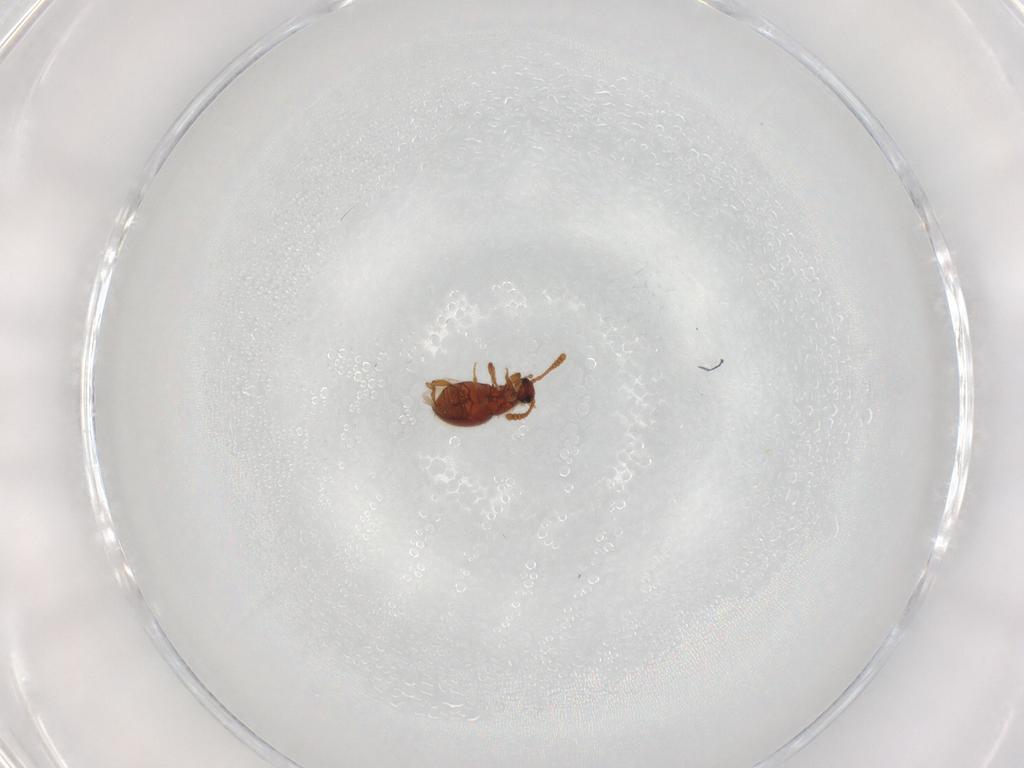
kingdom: Animalia
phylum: Arthropoda
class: Insecta
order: Coleoptera
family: Staphylinidae
